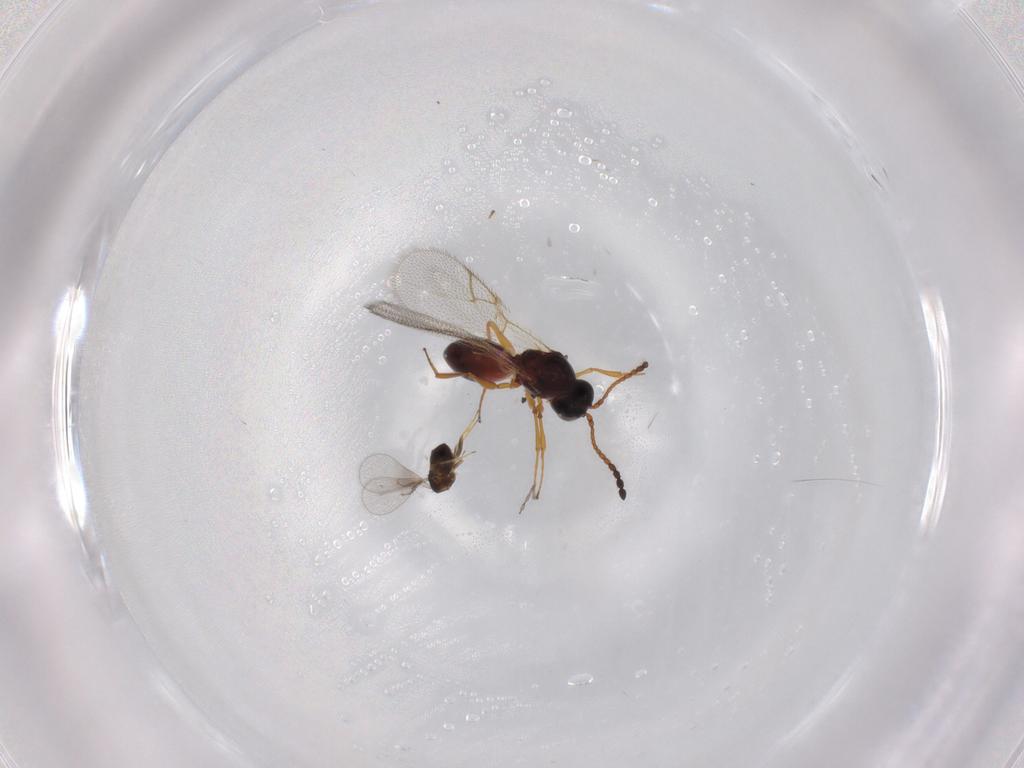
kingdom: Animalia
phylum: Arthropoda
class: Insecta
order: Hymenoptera
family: Figitidae
